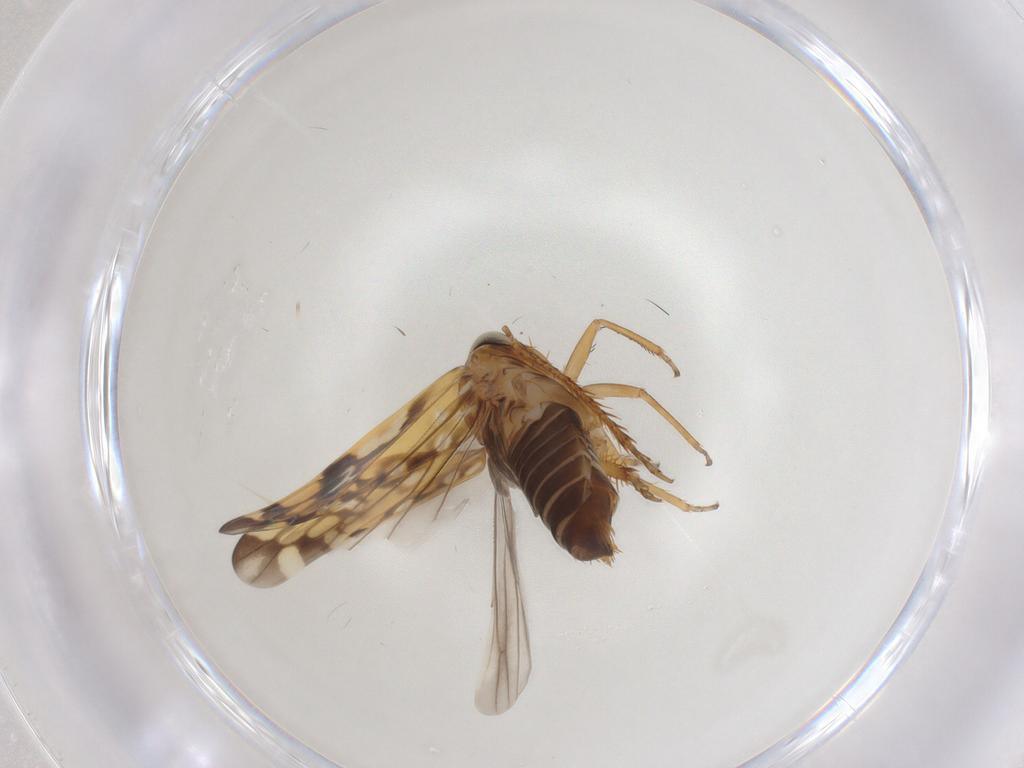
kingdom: Animalia
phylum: Arthropoda
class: Insecta
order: Hemiptera
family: Cicadellidae
